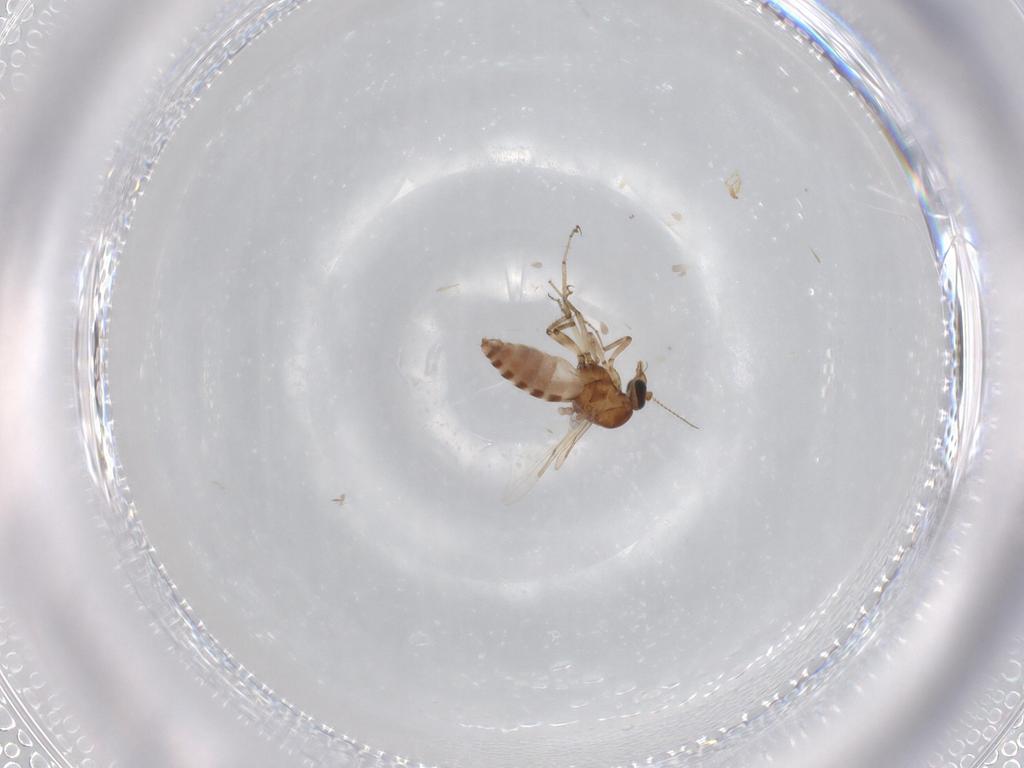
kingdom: Animalia
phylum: Arthropoda
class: Insecta
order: Diptera
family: Ceratopogonidae
